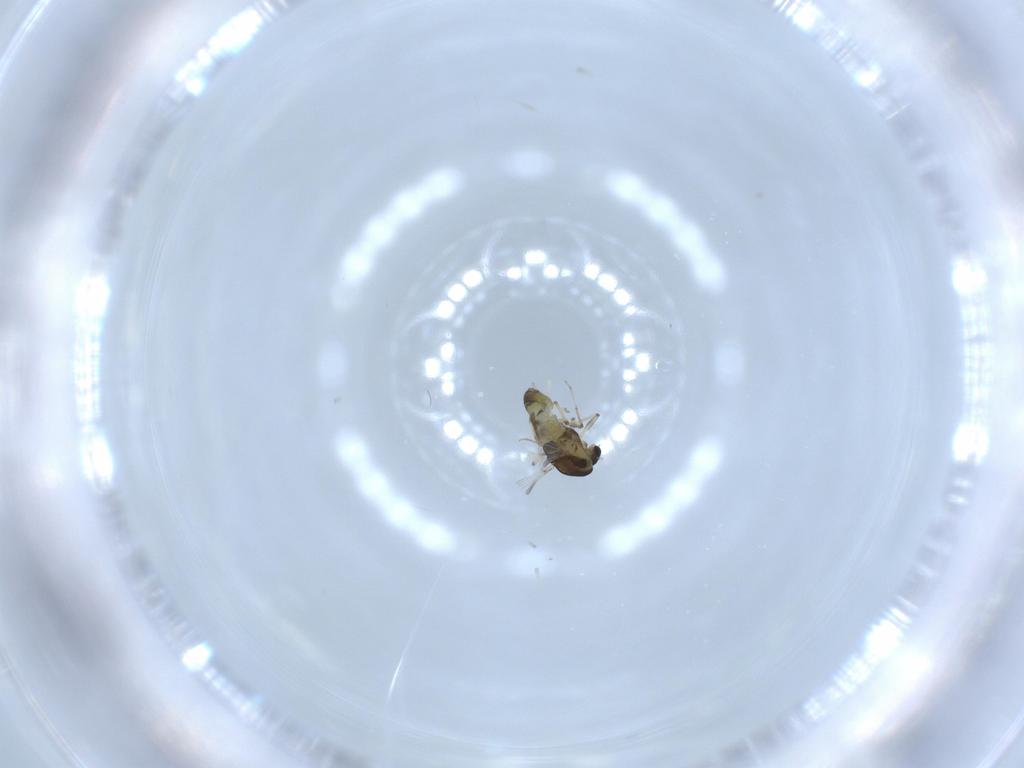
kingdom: Animalia
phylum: Arthropoda
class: Insecta
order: Diptera
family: Chironomidae
